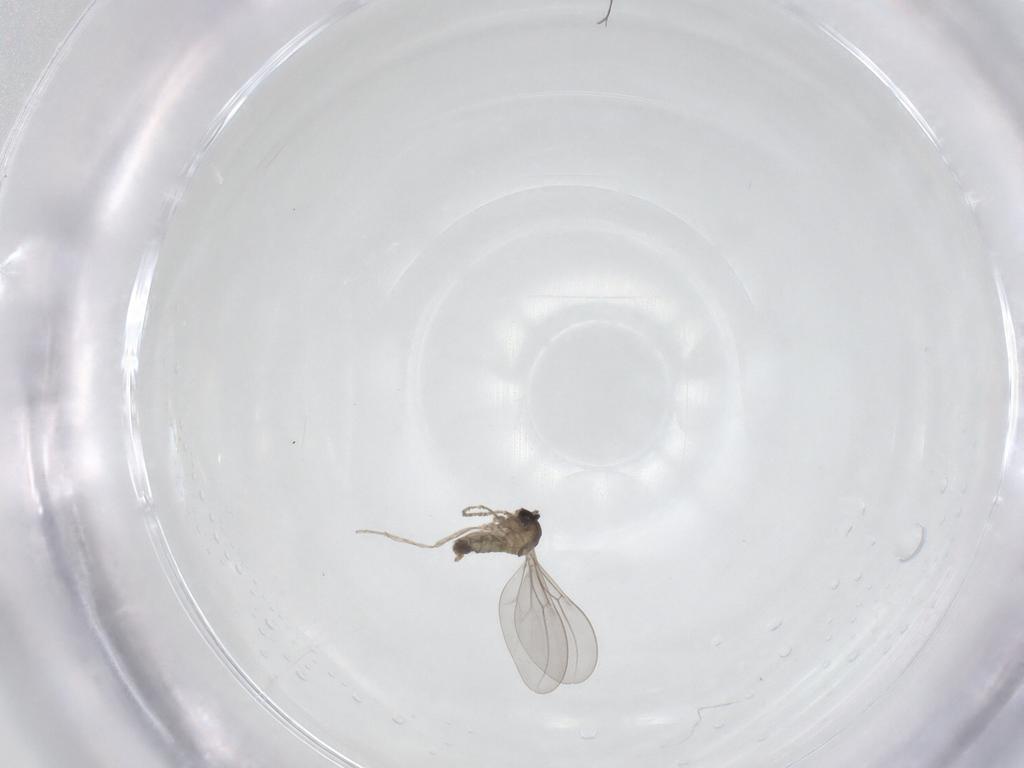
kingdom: Animalia
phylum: Arthropoda
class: Insecta
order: Diptera
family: Cecidomyiidae
